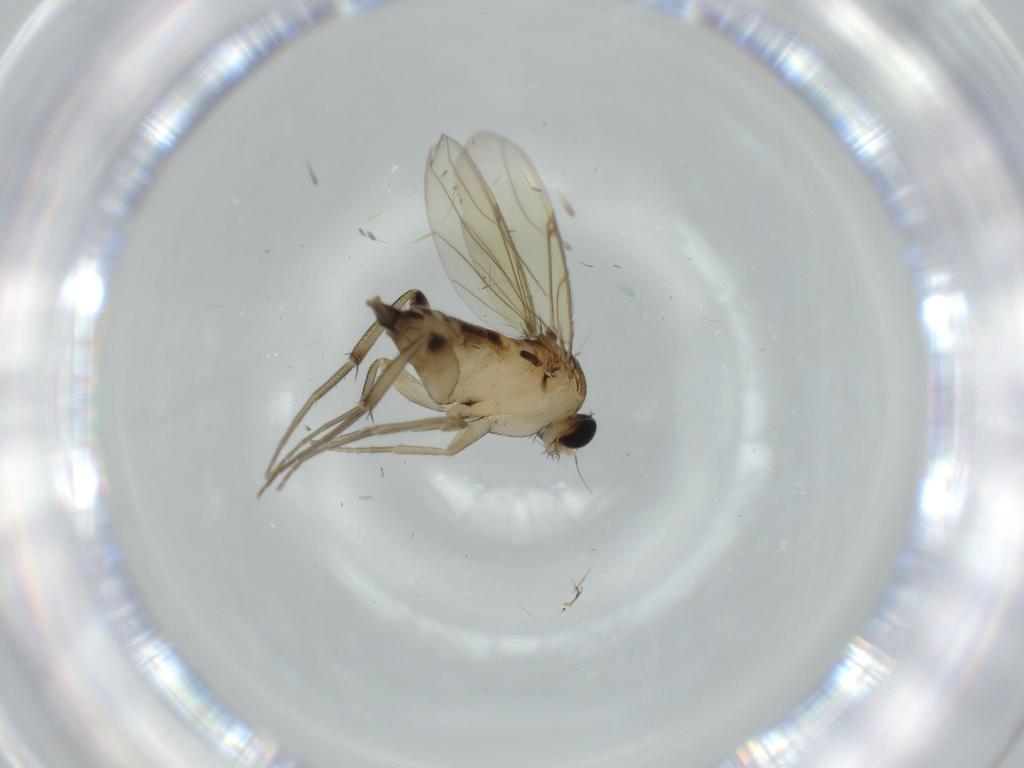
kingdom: Animalia
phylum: Arthropoda
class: Insecta
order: Diptera
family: Phoridae
